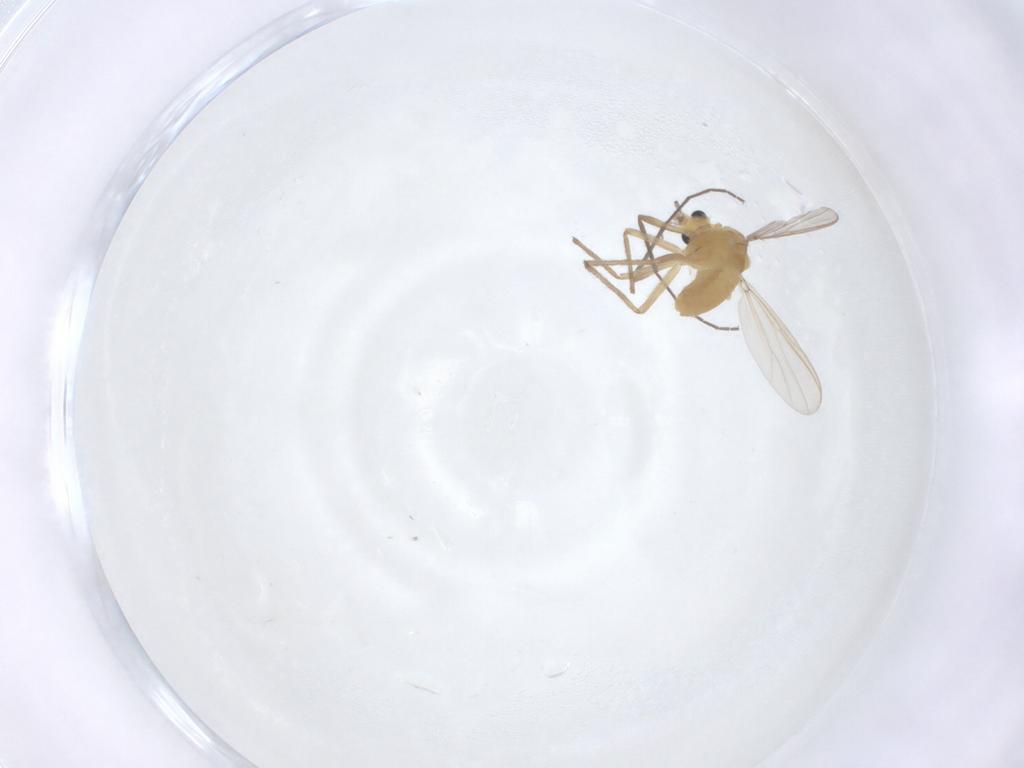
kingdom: Animalia
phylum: Arthropoda
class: Insecta
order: Diptera
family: Chironomidae
